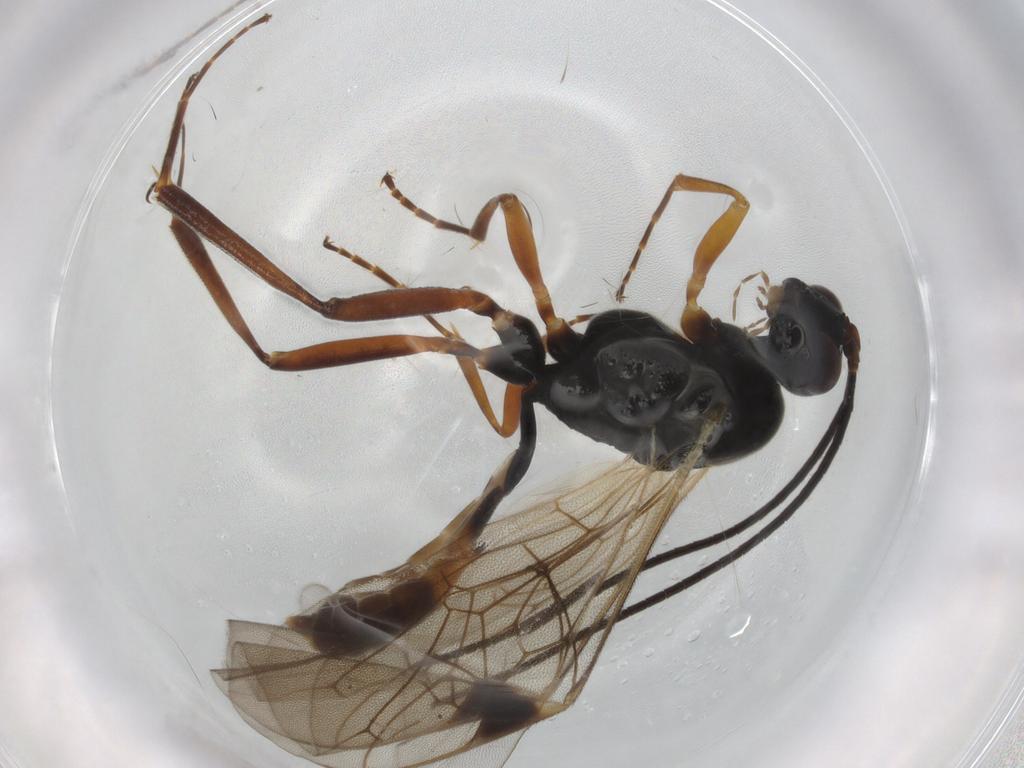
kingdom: Animalia
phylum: Arthropoda
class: Insecta
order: Hymenoptera
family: Ichneumonidae
